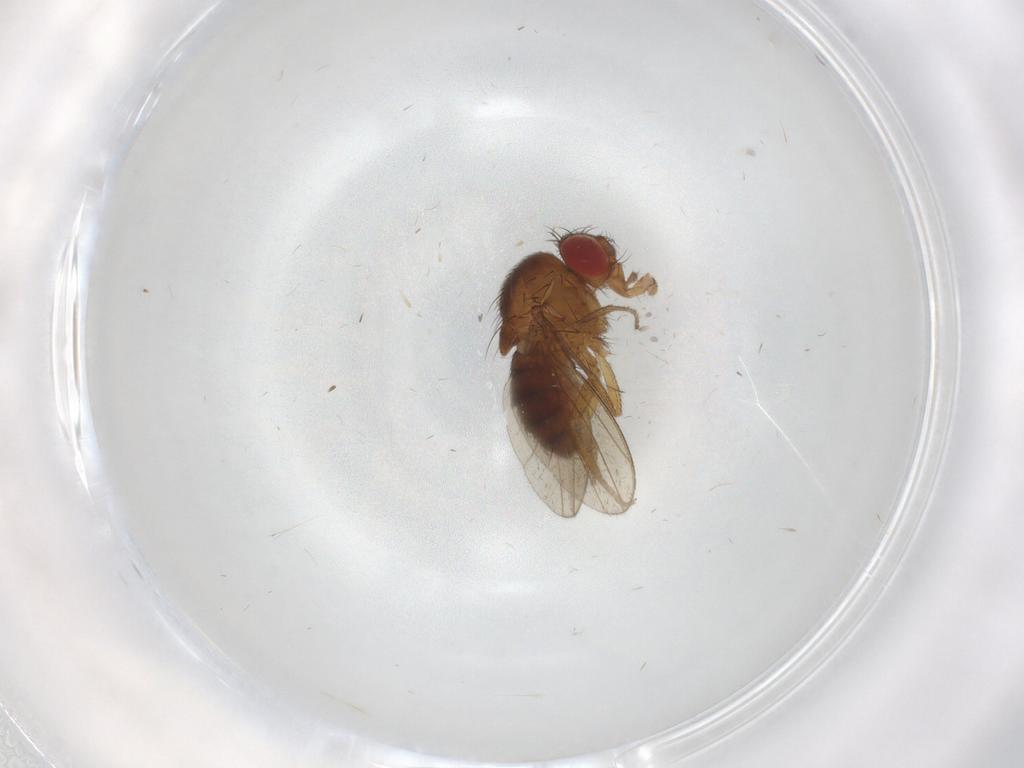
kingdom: Animalia
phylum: Arthropoda
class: Insecta
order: Diptera
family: Drosophilidae
